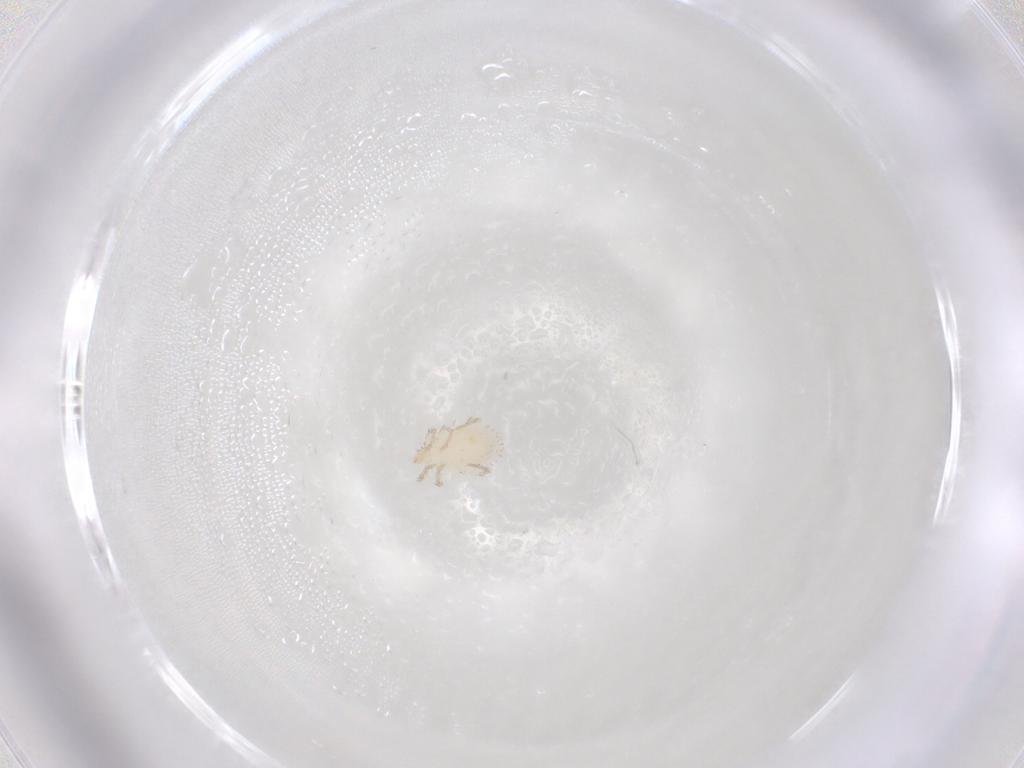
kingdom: Animalia
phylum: Arthropoda
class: Arachnida
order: Trombidiformes
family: Erythraeidae
